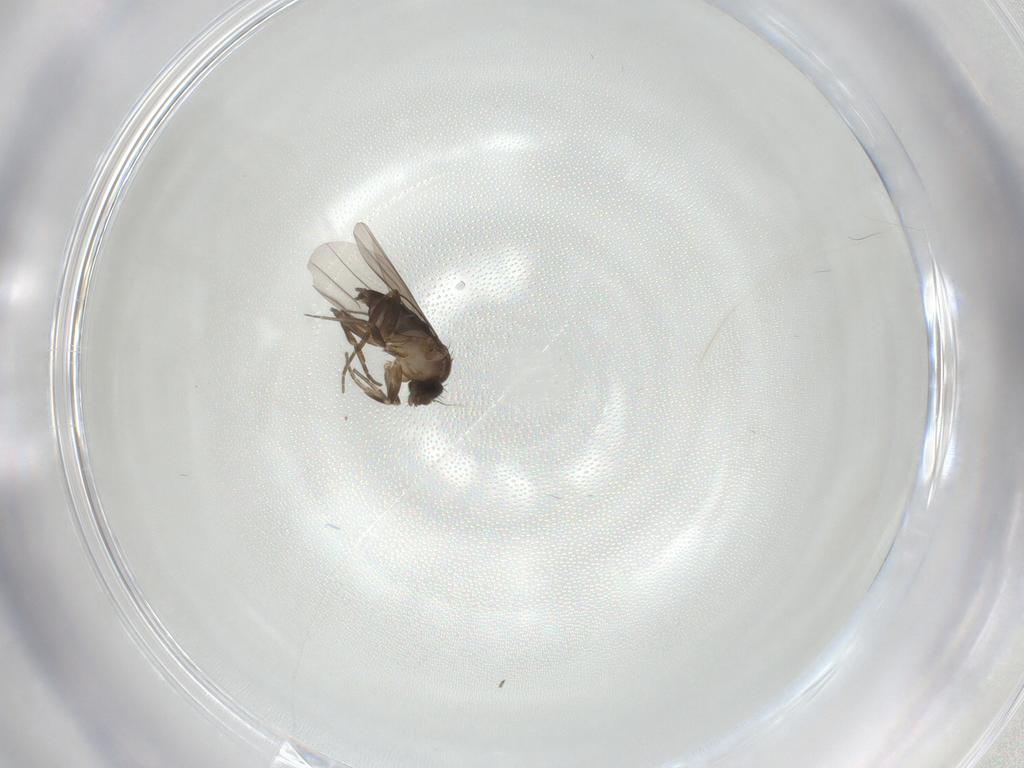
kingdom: Animalia
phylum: Arthropoda
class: Insecta
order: Diptera
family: Phoridae
